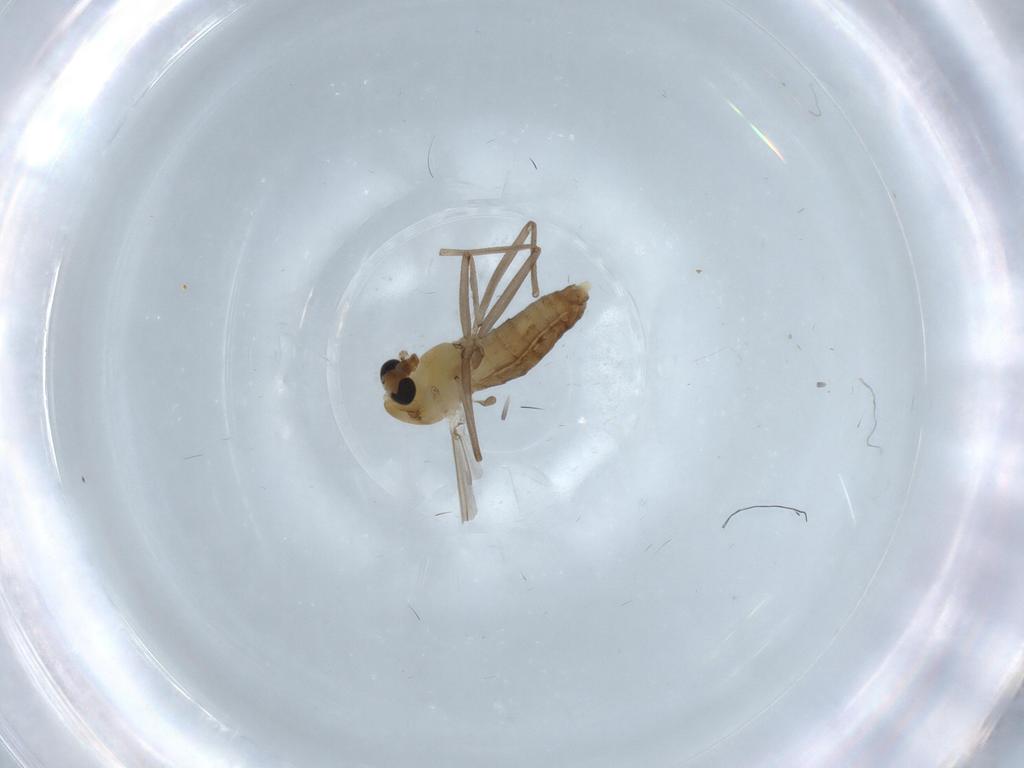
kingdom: Animalia
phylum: Arthropoda
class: Insecta
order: Diptera
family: Chironomidae
